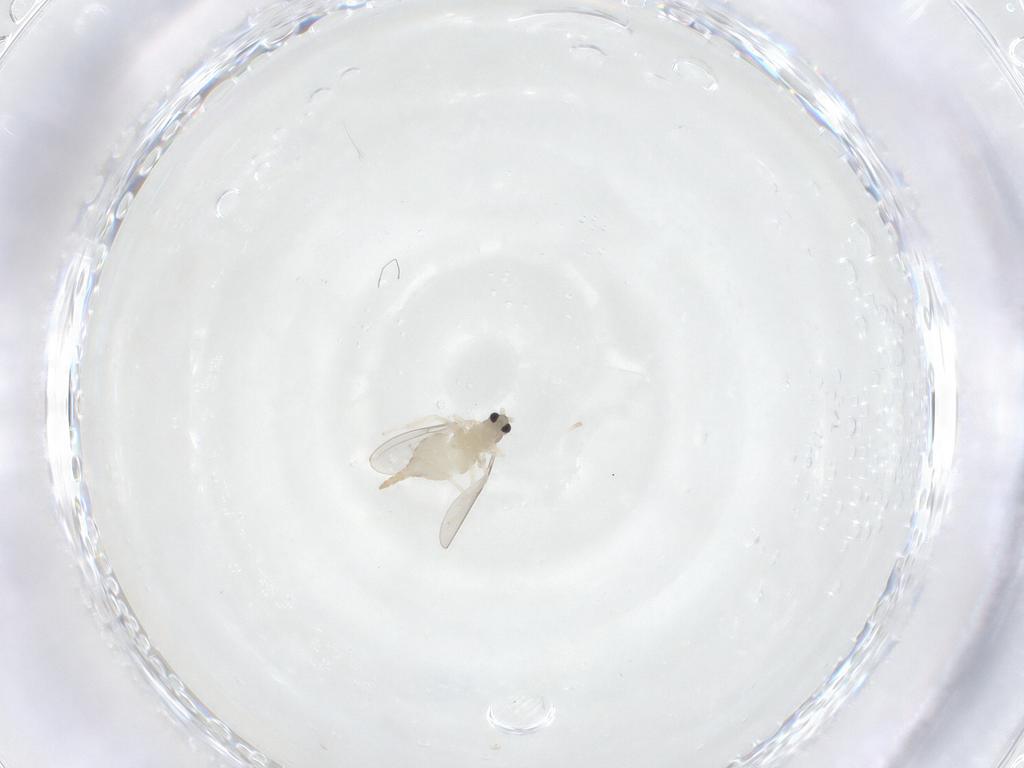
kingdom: Animalia
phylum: Arthropoda
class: Insecta
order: Diptera
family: Cecidomyiidae
